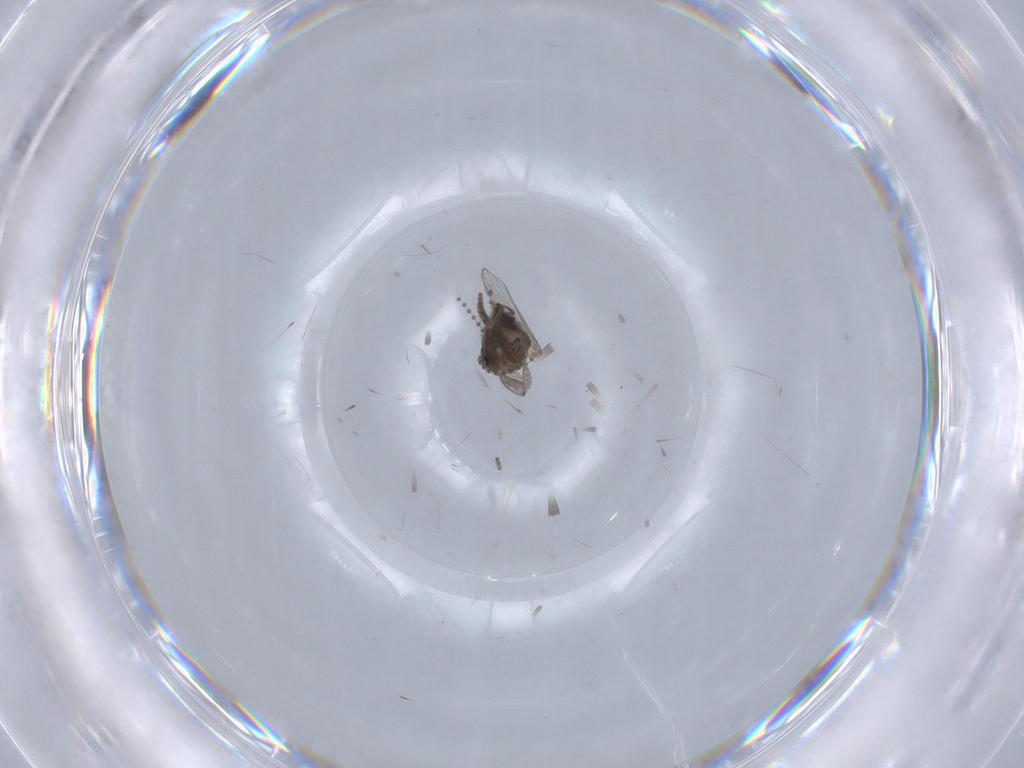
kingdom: Animalia
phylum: Arthropoda
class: Insecta
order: Diptera
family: Psychodidae
